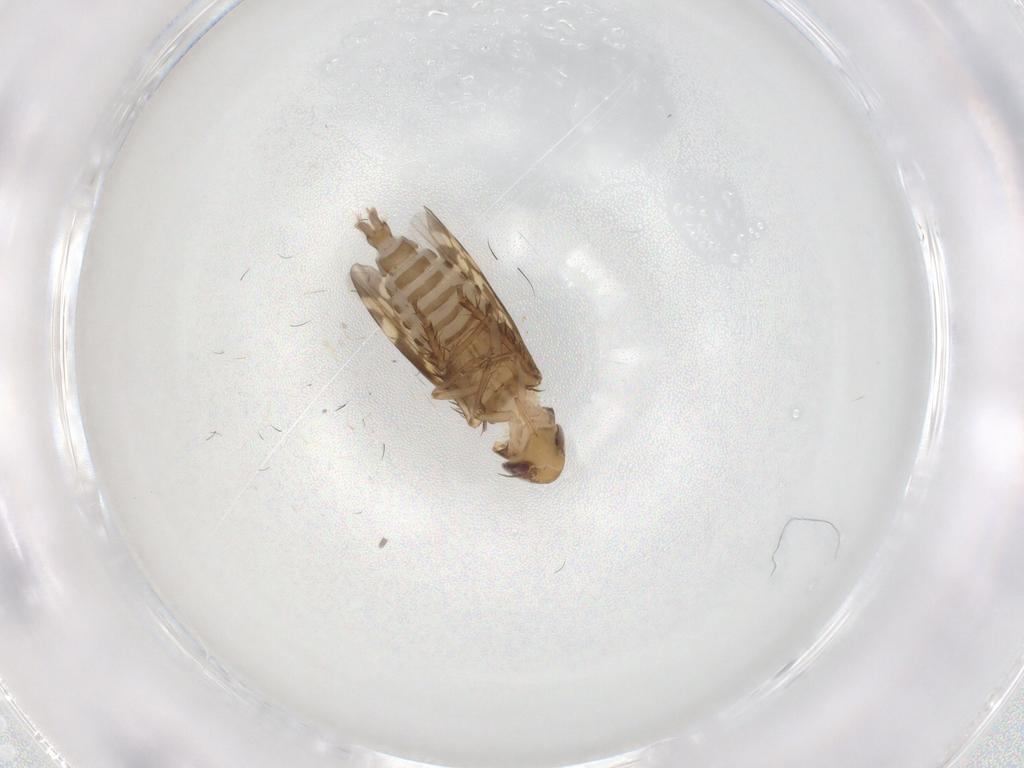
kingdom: Animalia
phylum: Arthropoda
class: Insecta
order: Hemiptera
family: Cicadellidae
